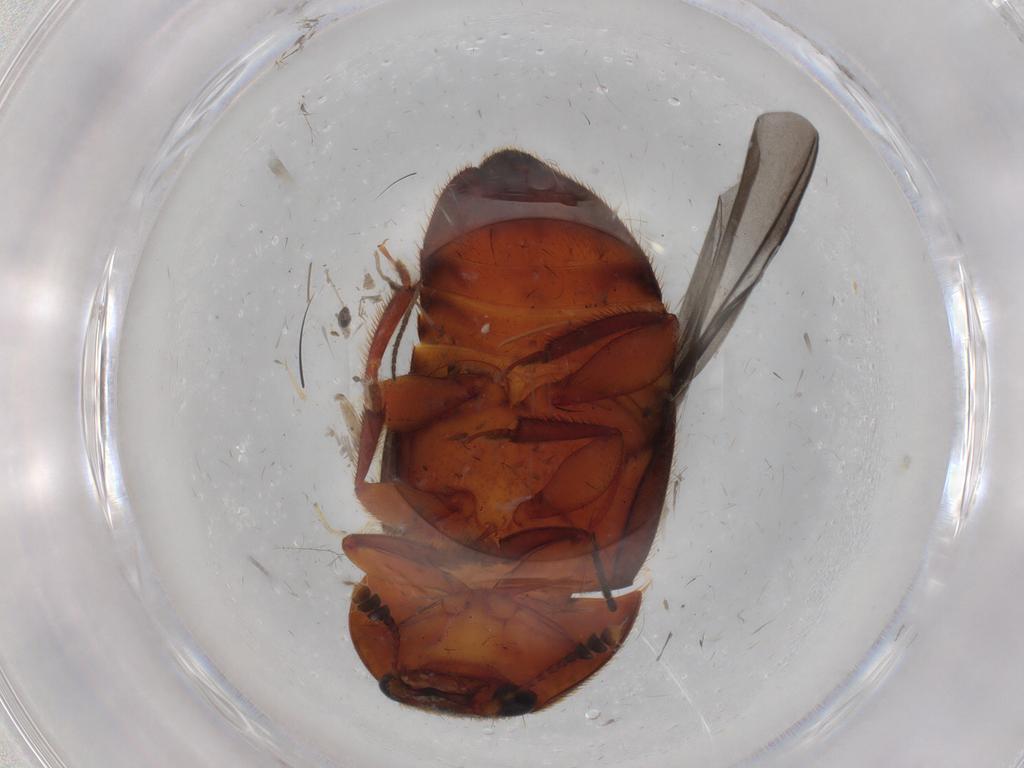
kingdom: Animalia
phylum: Arthropoda
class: Insecta
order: Coleoptera
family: Nitidulidae
